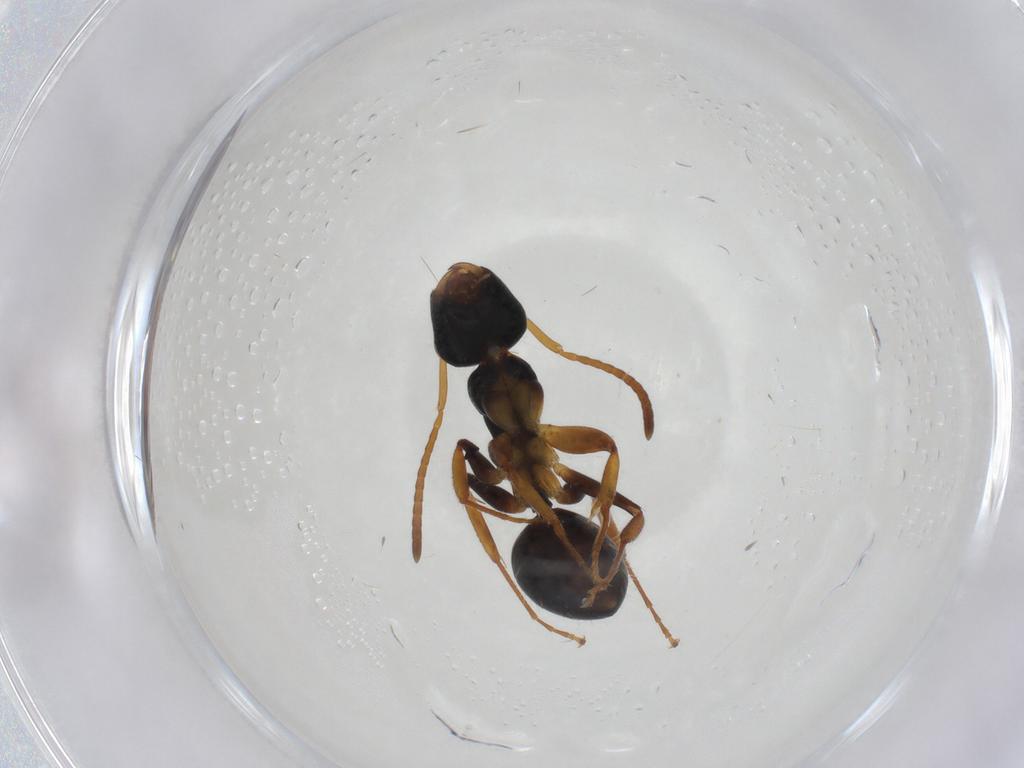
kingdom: Animalia
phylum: Arthropoda
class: Insecta
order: Hymenoptera
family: Formicidae
